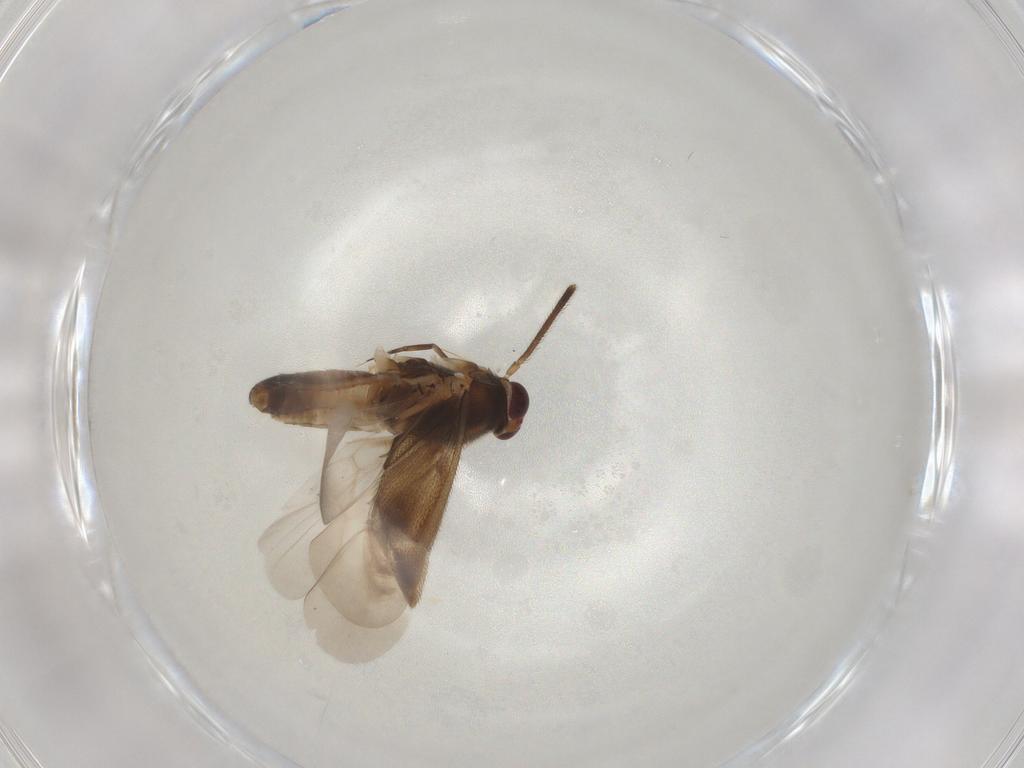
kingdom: Animalia
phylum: Arthropoda
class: Insecta
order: Hemiptera
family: Miridae
